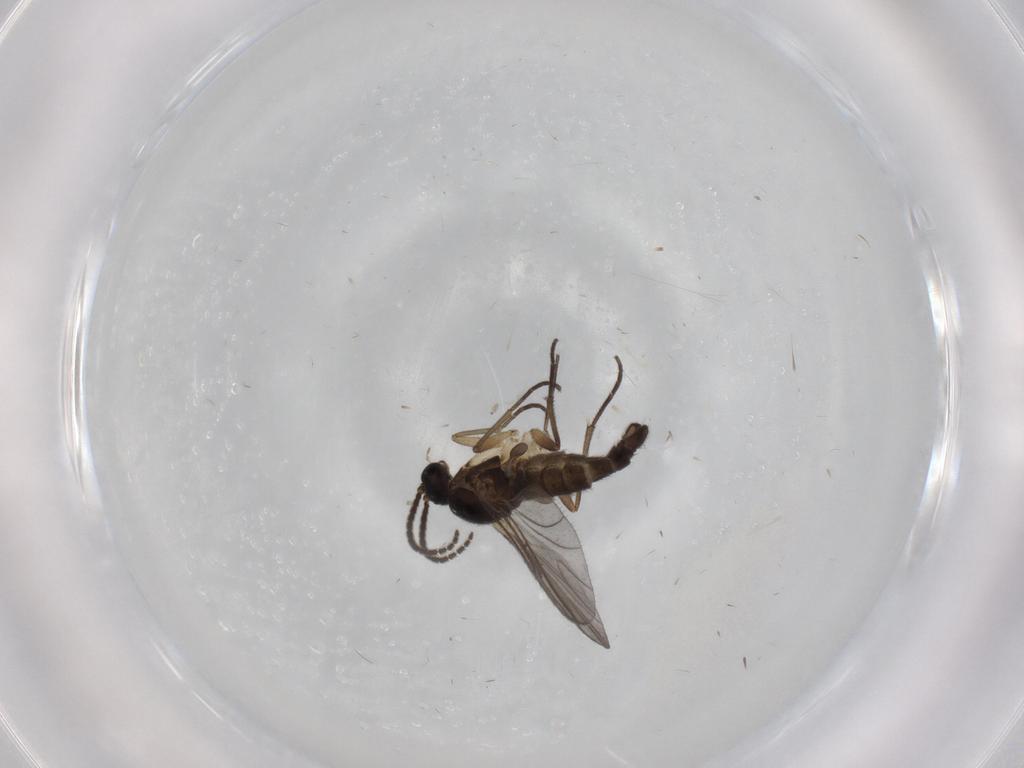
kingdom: Animalia
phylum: Arthropoda
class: Insecta
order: Diptera
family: Sciaridae
